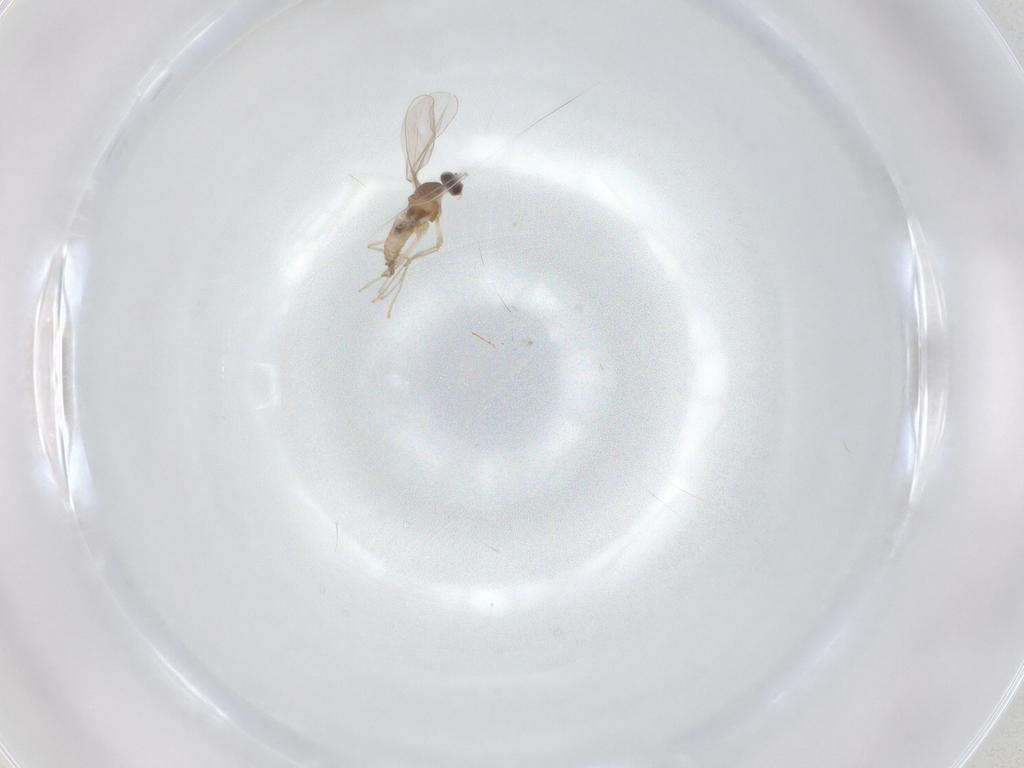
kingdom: Animalia
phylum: Arthropoda
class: Insecta
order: Diptera
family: Cecidomyiidae
